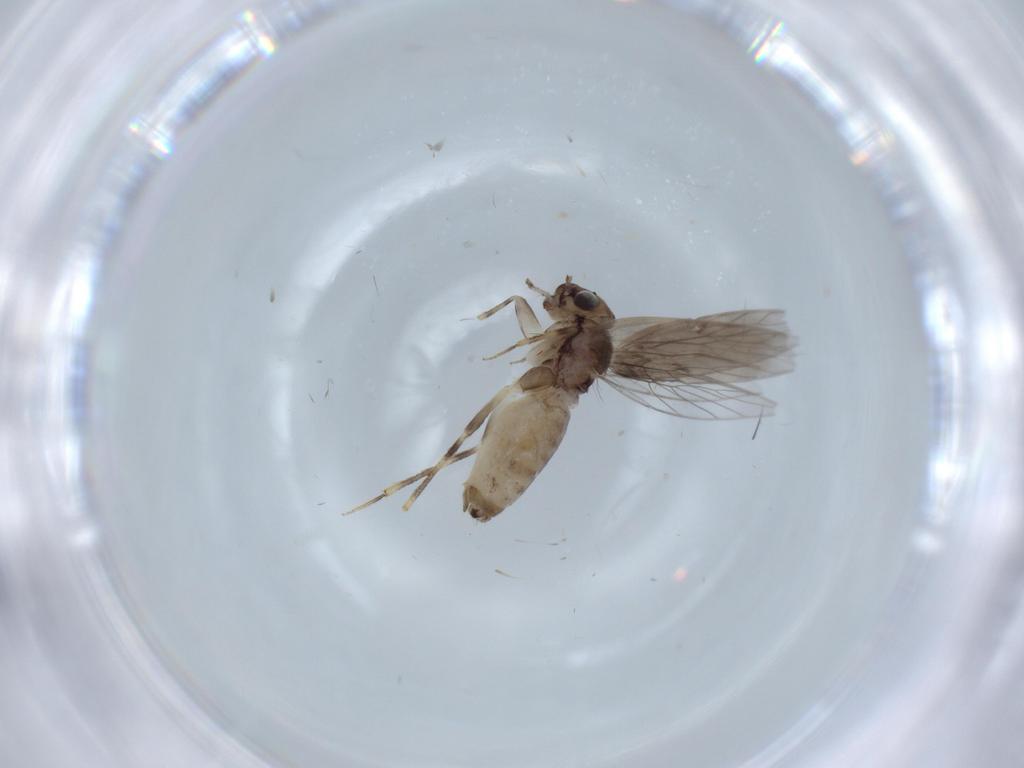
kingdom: Animalia
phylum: Arthropoda
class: Insecta
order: Psocodea
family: Lepidopsocidae
